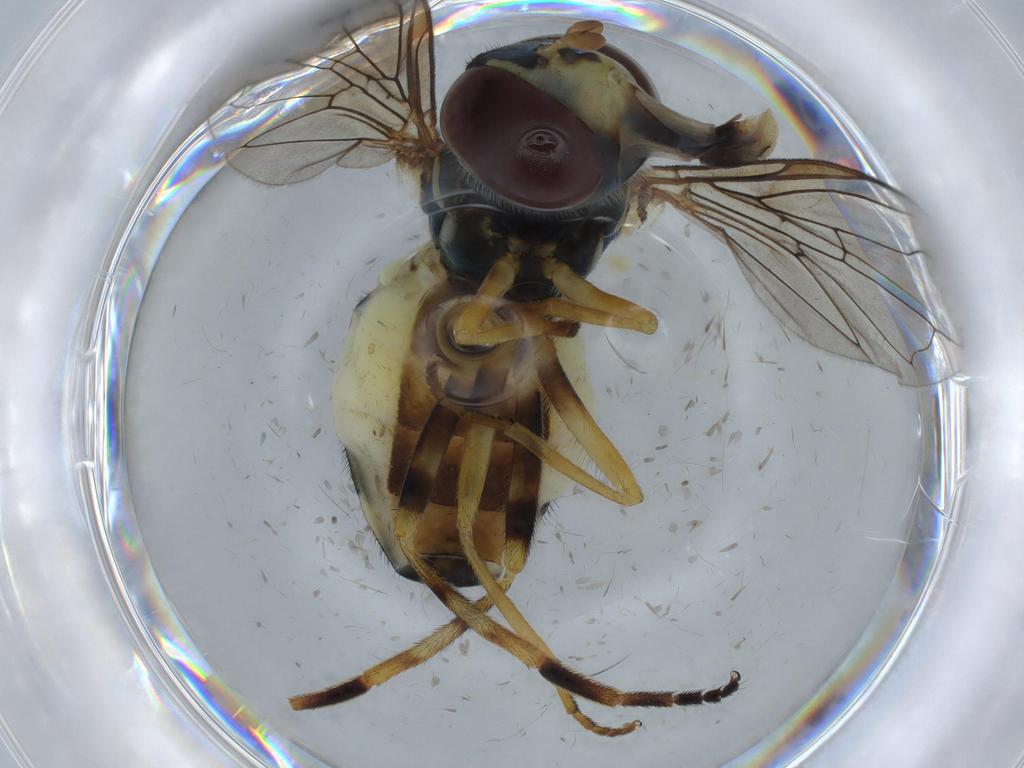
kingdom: Animalia
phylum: Arthropoda
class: Insecta
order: Diptera
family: Syrphidae
